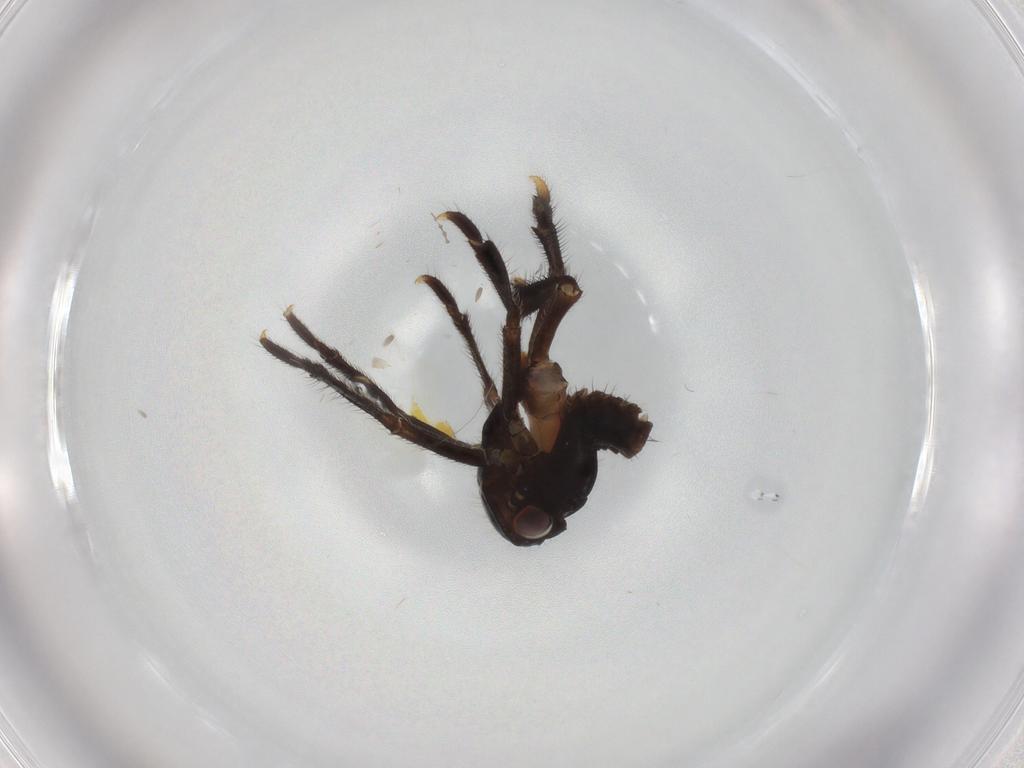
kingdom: Animalia
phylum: Arthropoda
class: Insecta
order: Hemiptera
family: Aleyrodidae
